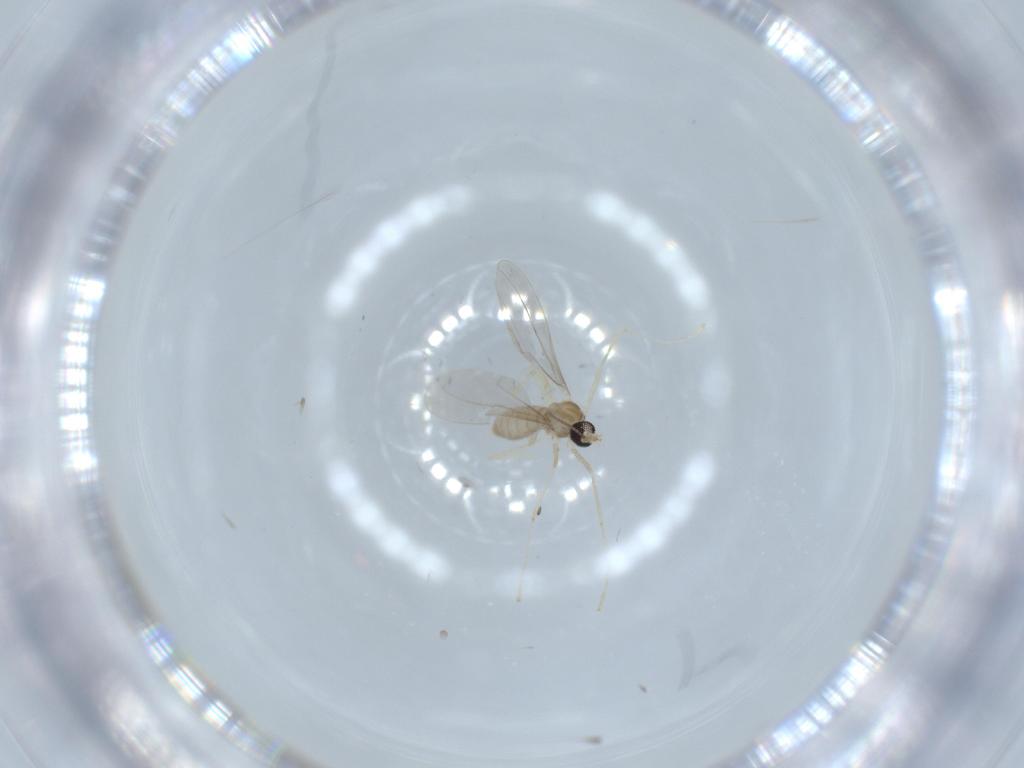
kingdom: Animalia
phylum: Arthropoda
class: Insecta
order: Diptera
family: Cecidomyiidae
